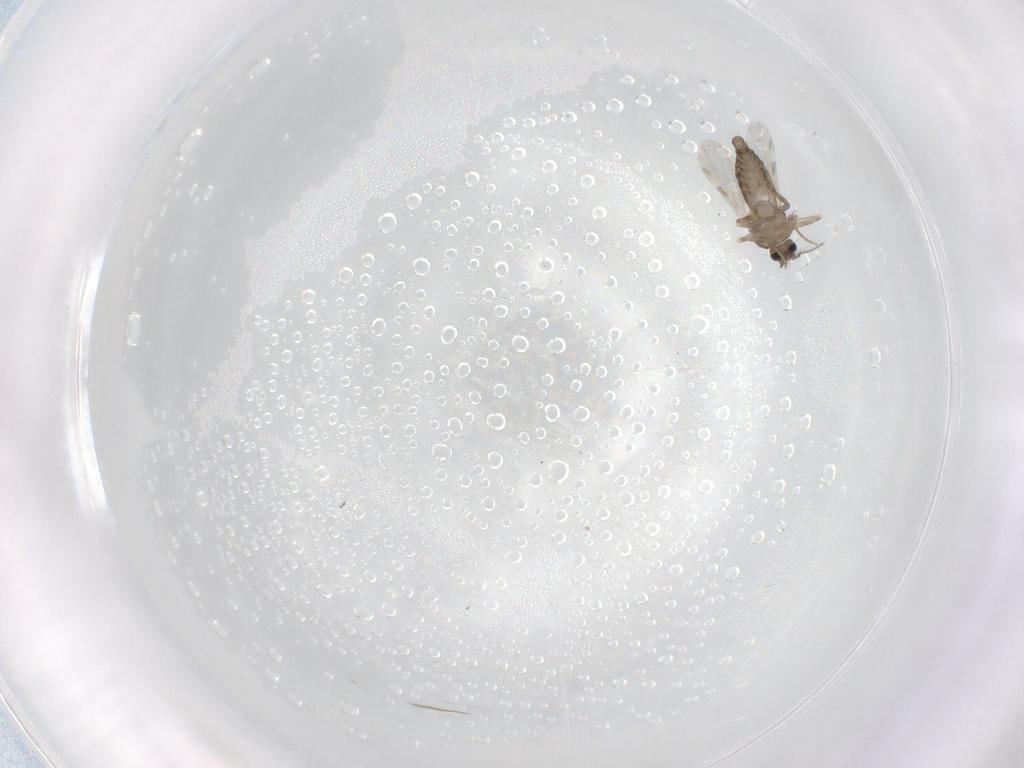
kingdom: Animalia
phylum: Arthropoda
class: Insecta
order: Diptera
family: Ceratopogonidae
